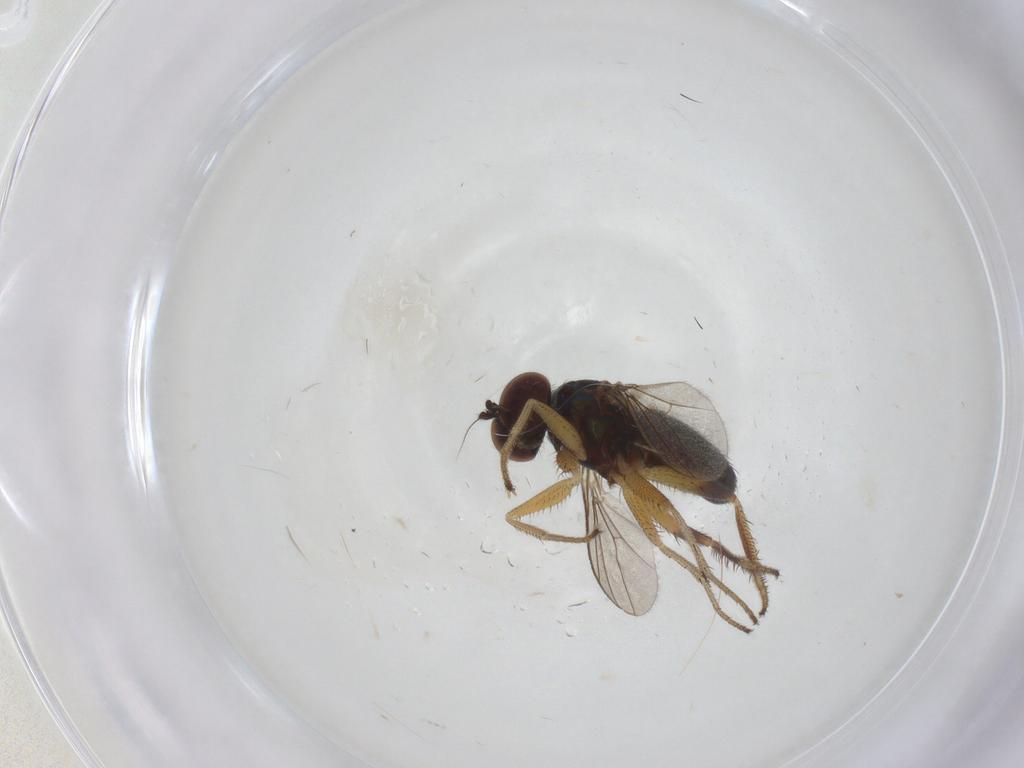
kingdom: Animalia
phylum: Arthropoda
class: Insecta
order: Diptera
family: Dolichopodidae
